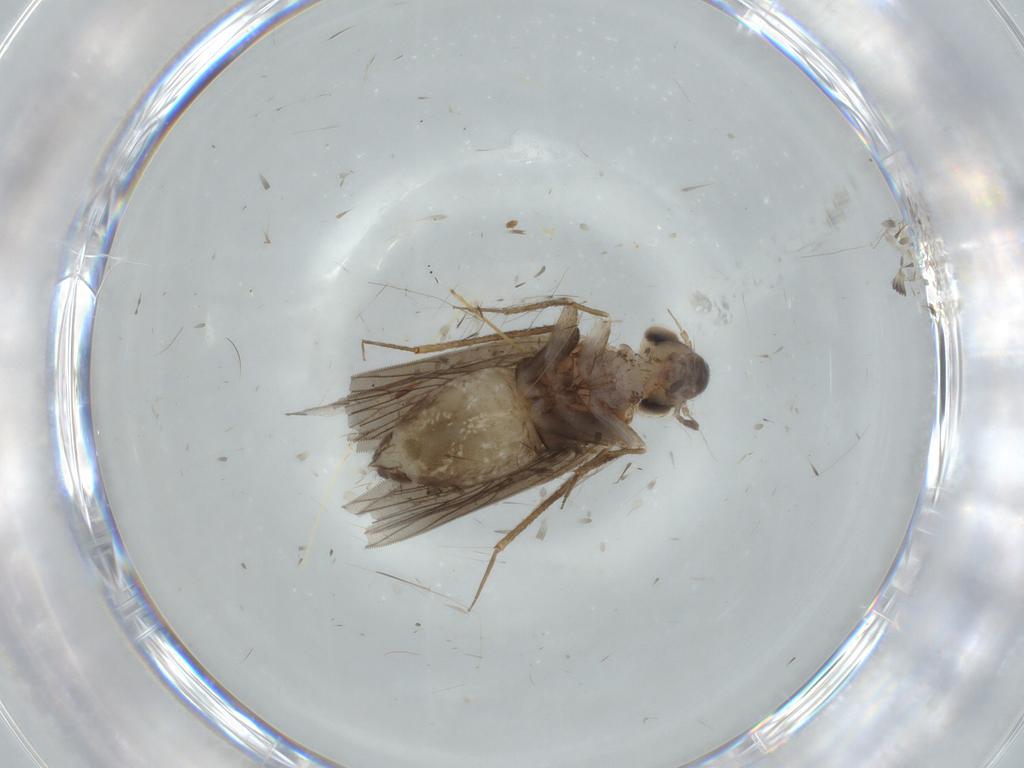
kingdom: Animalia
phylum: Arthropoda
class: Insecta
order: Psocodea
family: Lepidopsocidae
